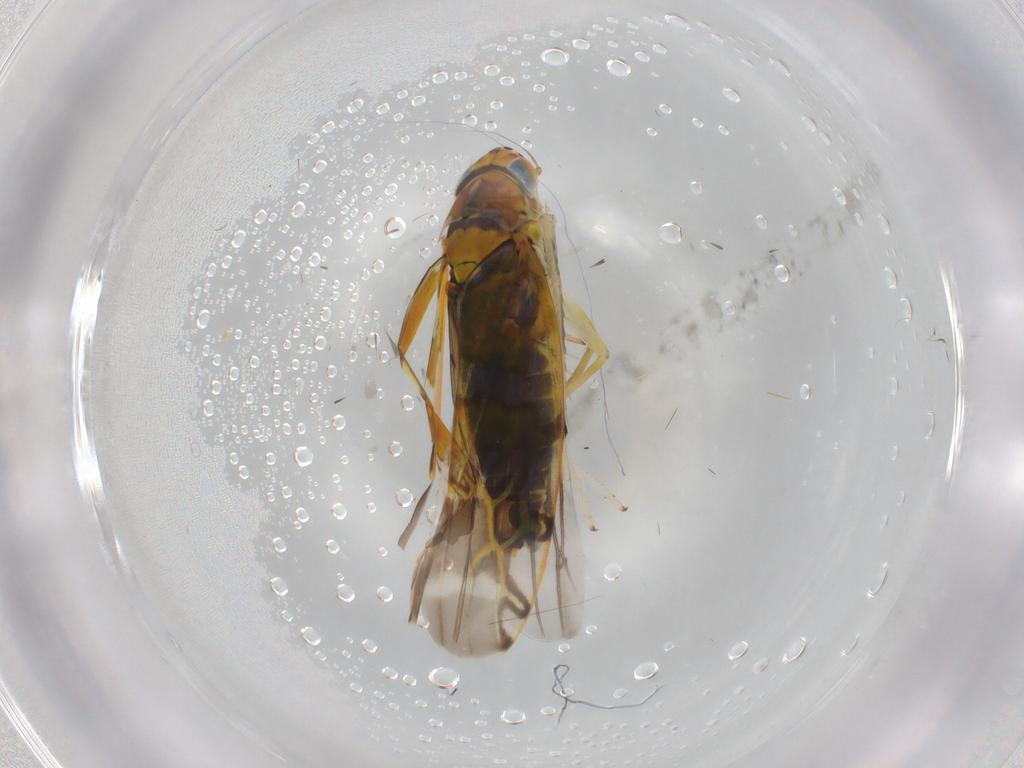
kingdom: Animalia
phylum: Arthropoda
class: Insecta
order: Hemiptera
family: Cicadellidae
